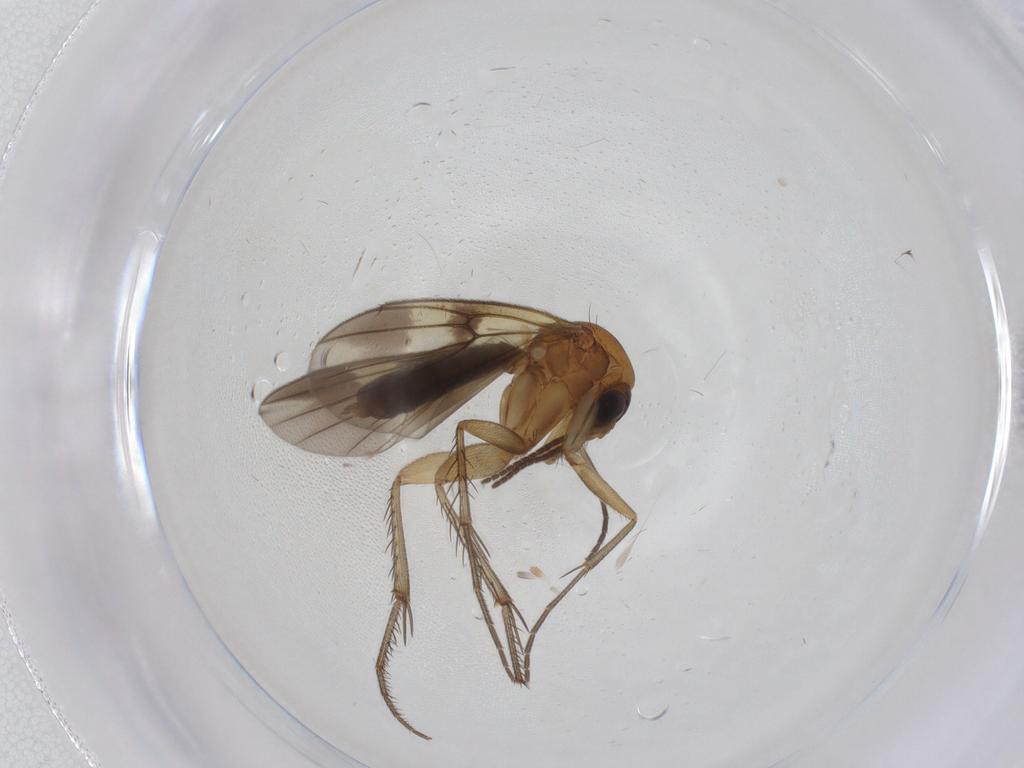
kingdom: Animalia
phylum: Arthropoda
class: Insecta
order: Diptera
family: Mycetophilidae
